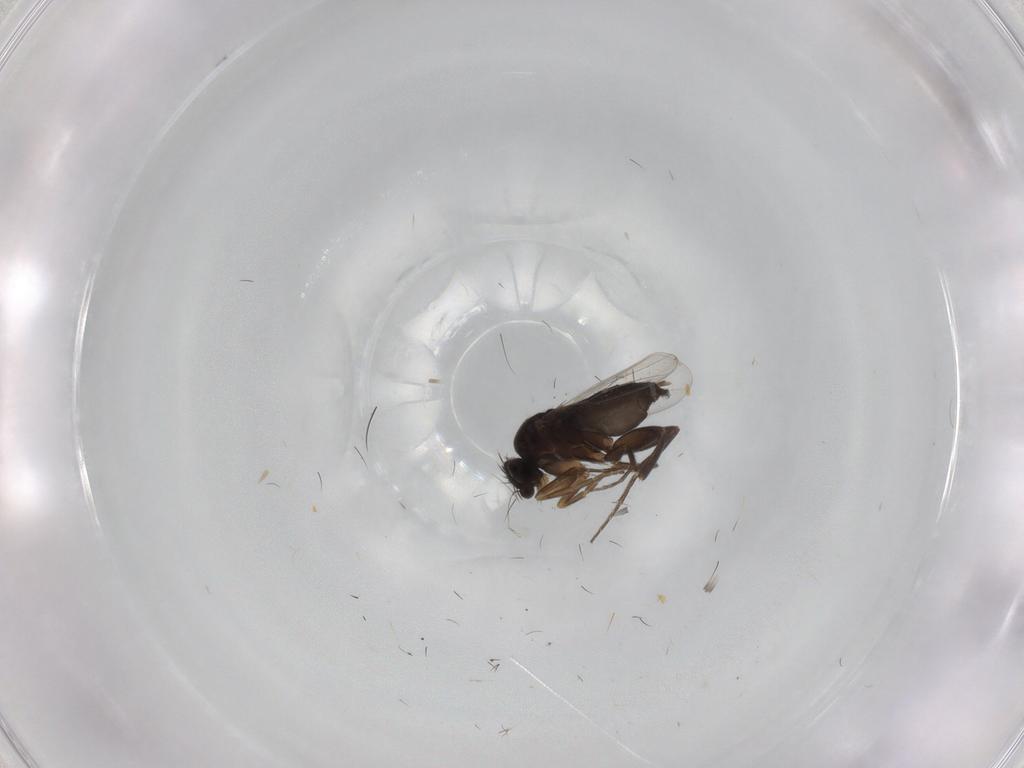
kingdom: Animalia
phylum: Arthropoda
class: Insecta
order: Diptera
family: Phoridae
